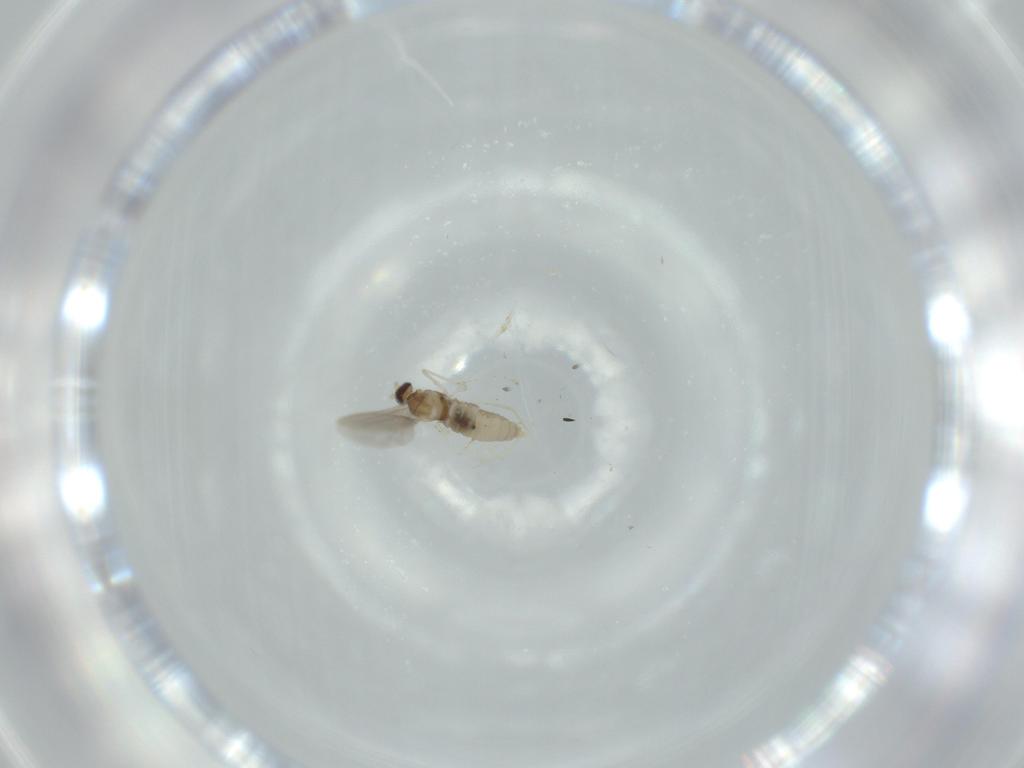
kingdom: Animalia
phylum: Arthropoda
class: Insecta
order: Diptera
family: Cecidomyiidae
